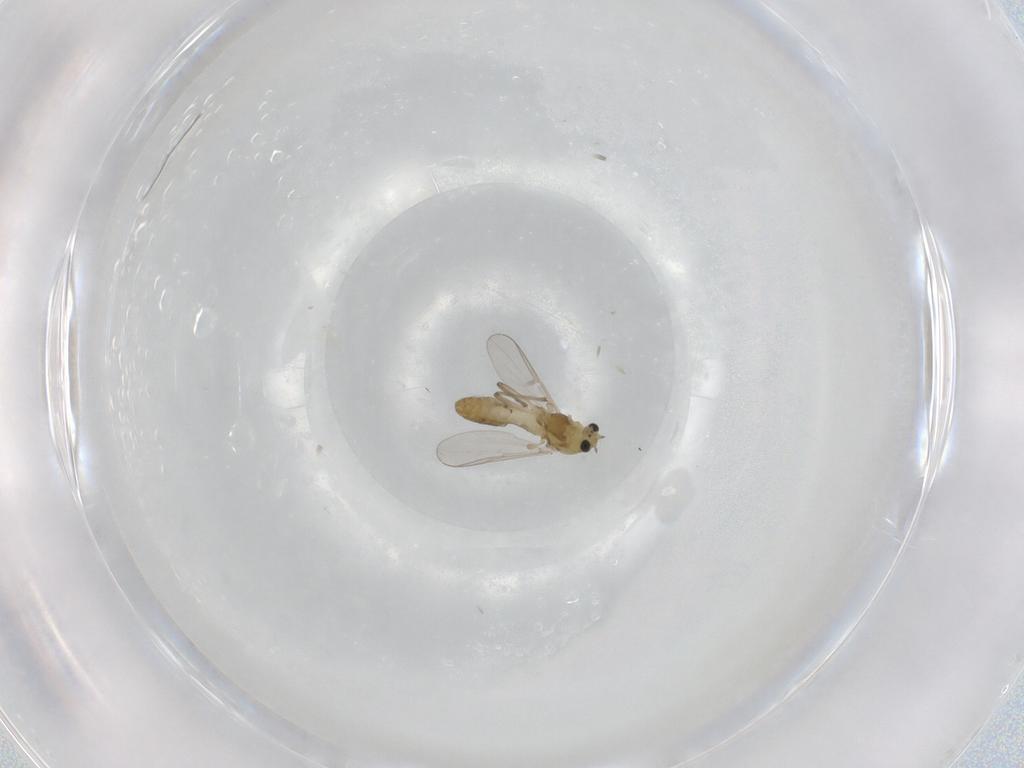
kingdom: Animalia
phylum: Arthropoda
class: Insecta
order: Diptera
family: Chironomidae
